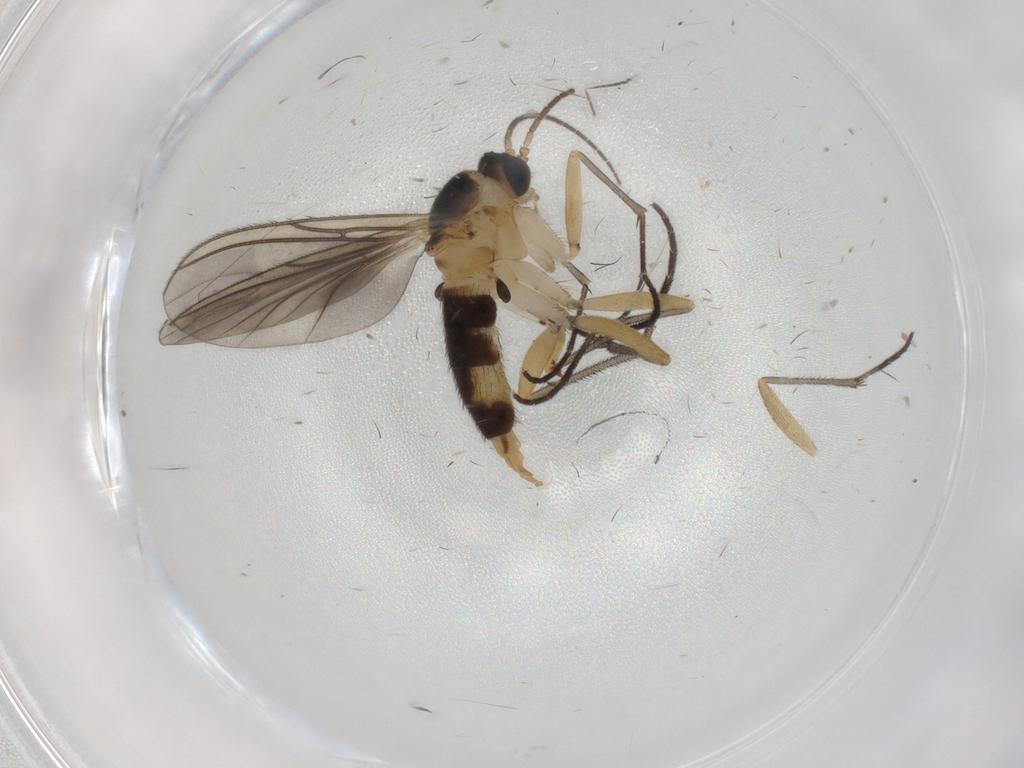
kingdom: Animalia
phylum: Arthropoda
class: Insecta
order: Diptera
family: Sciaridae
